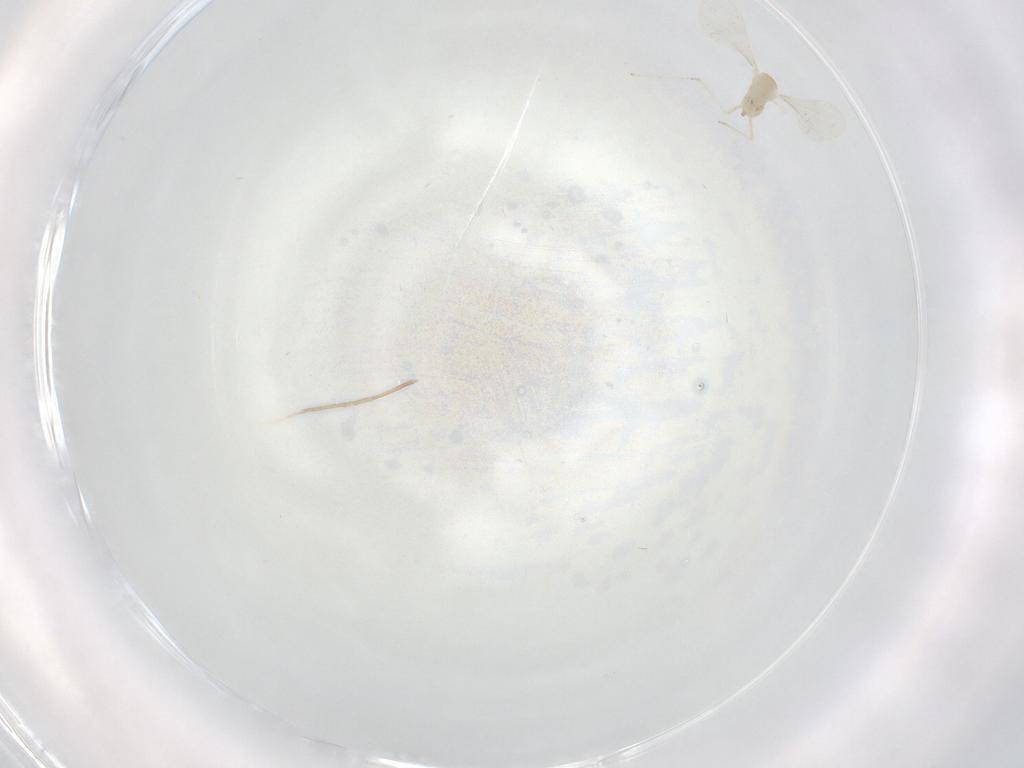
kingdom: Animalia
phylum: Arthropoda
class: Insecta
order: Diptera
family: Cecidomyiidae
